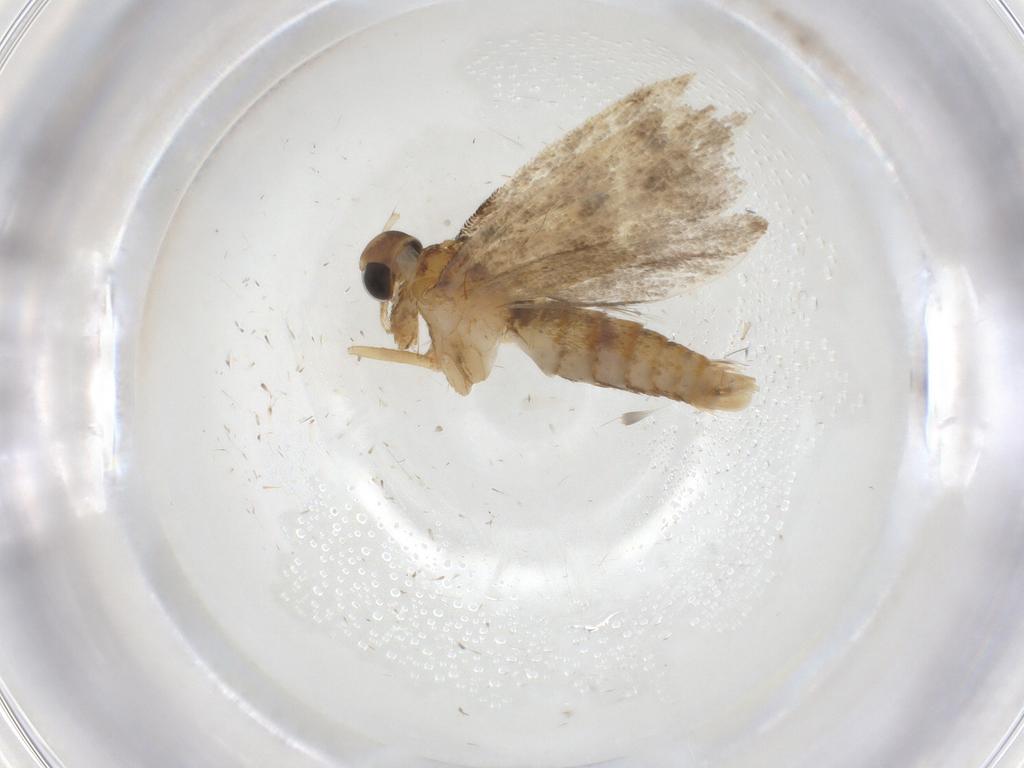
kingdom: Animalia
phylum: Arthropoda
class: Insecta
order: Lepidoptera
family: Oecophoridae
